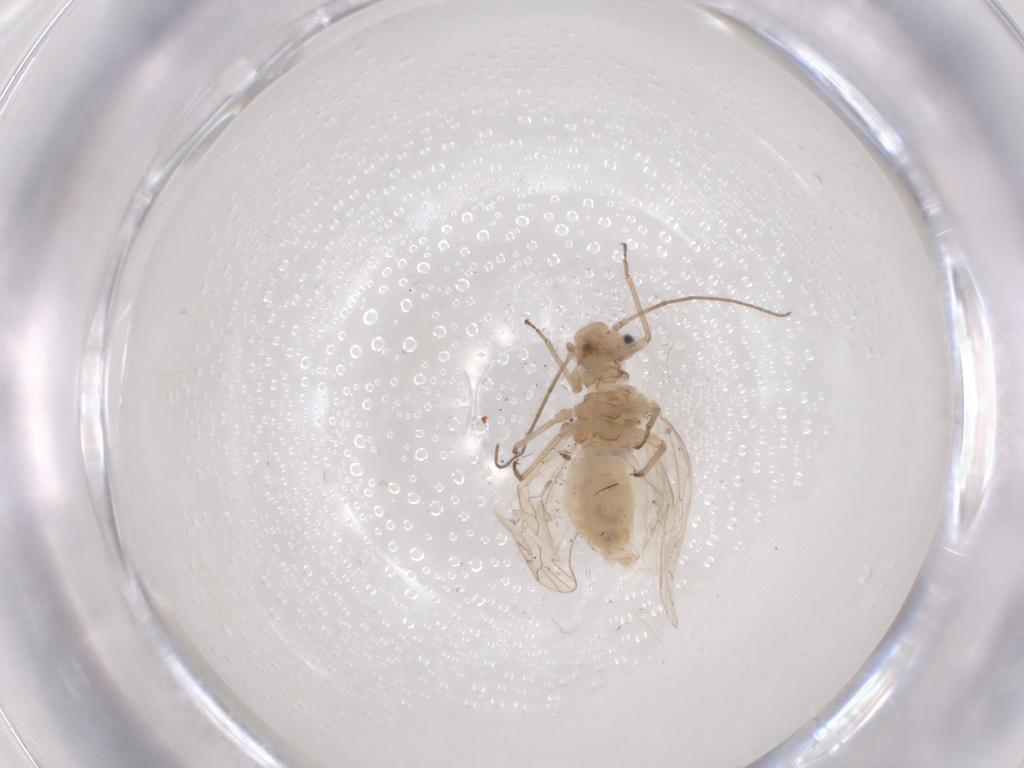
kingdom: Animalia
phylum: Arthropoda
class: Insecta
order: Psocodea
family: Elipsocidae
